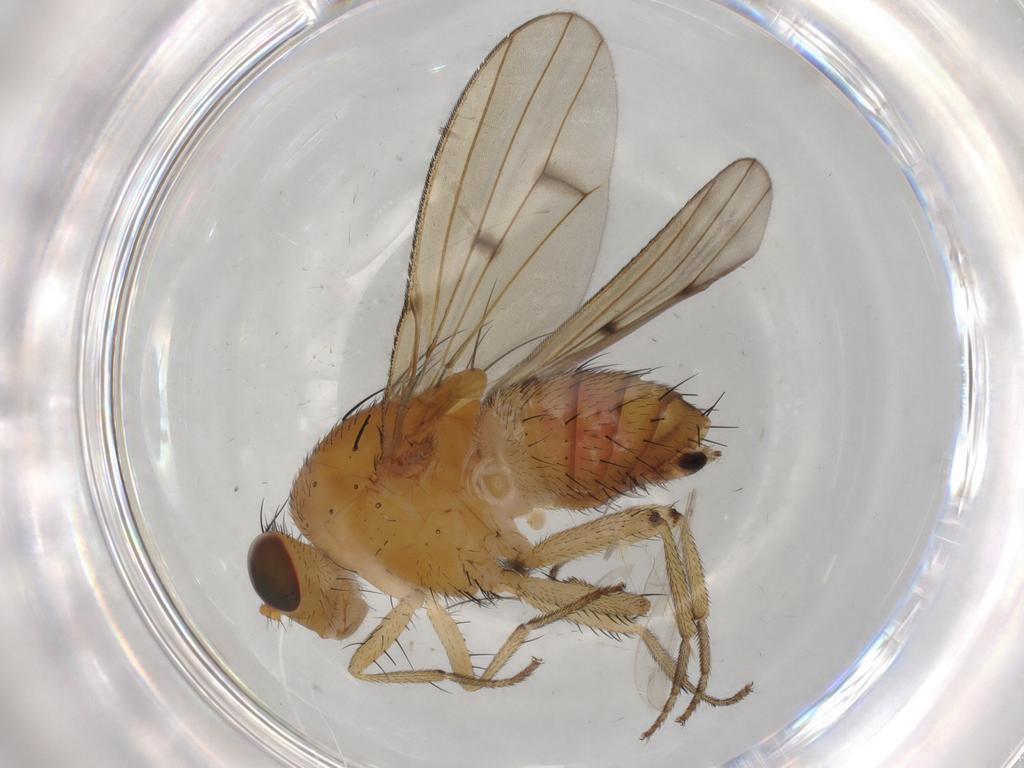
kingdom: Animalia
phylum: Arthropoda
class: Insecta
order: Diptera
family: Cecidomyiidae
